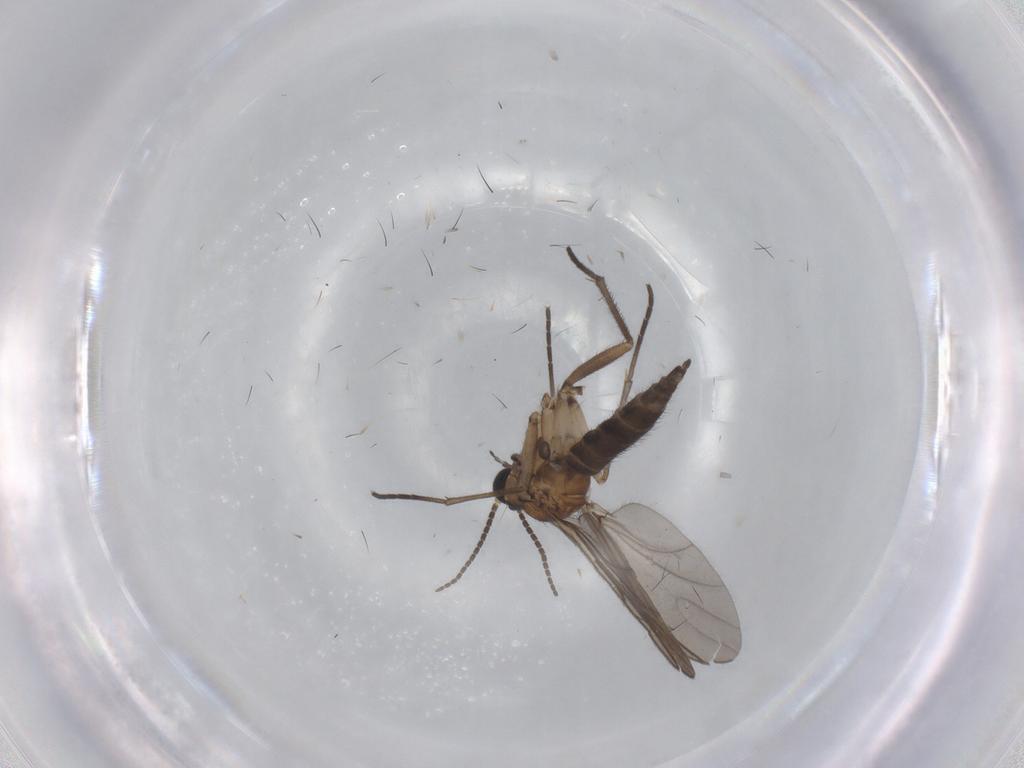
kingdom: Animalia
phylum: Arthropoda
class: Insecta
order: Diptera
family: Sciaridae
